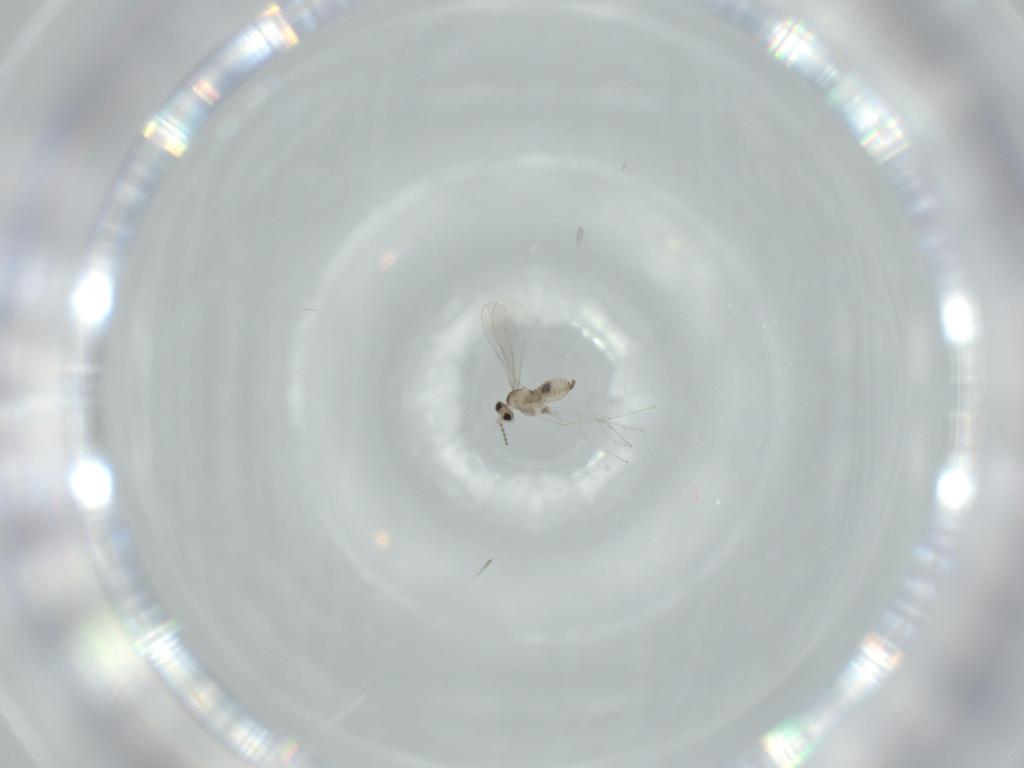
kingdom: Animalia
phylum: Arthropoda
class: Insecta
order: Diptera
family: Cecidomyiidae
